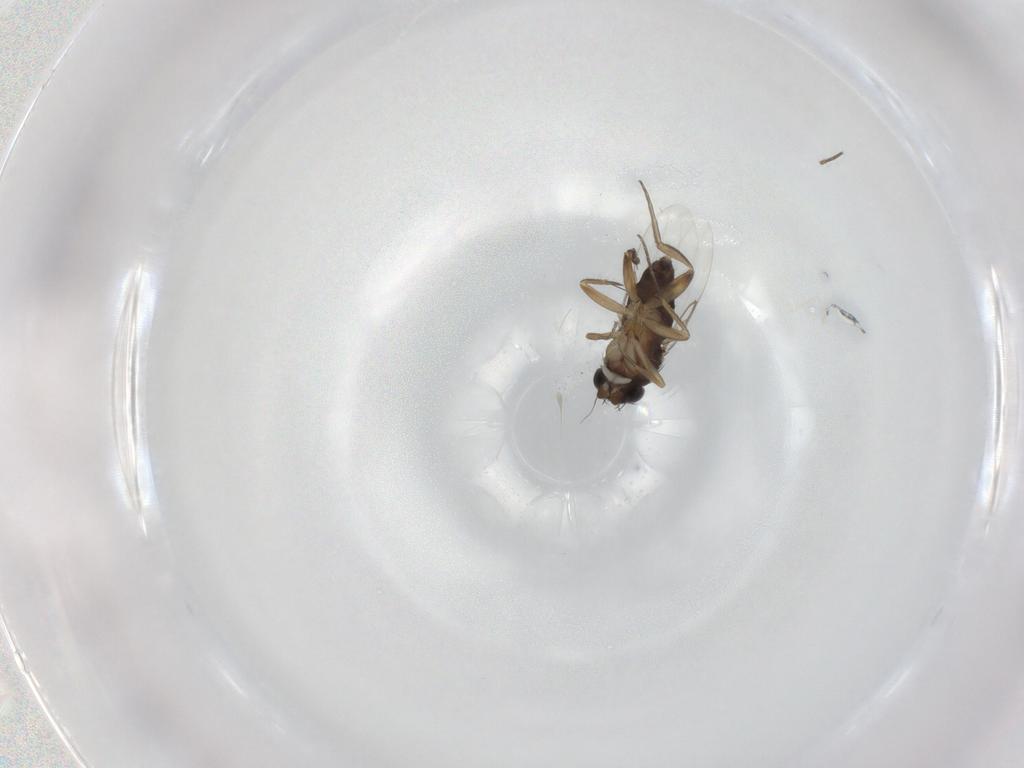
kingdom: Animalia
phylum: Arthropoda
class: Insecta
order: Diptera
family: Phoridae
